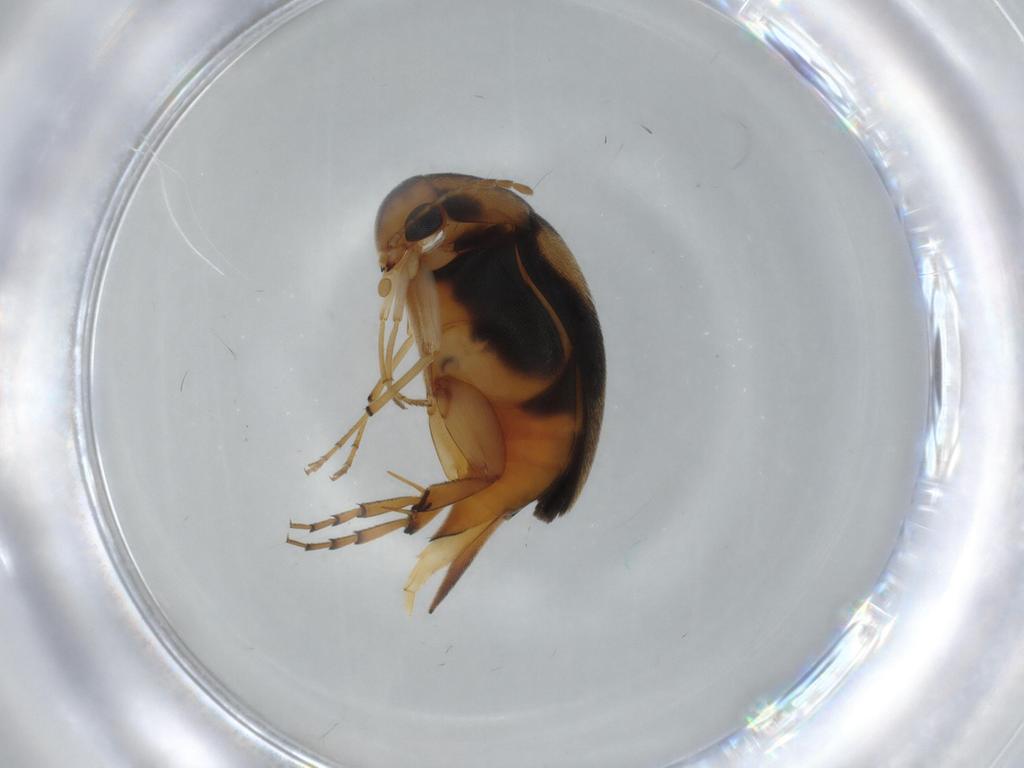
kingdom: Animalia
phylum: Arthropoda
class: Insecta
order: Coleoptera
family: Mordellidae
